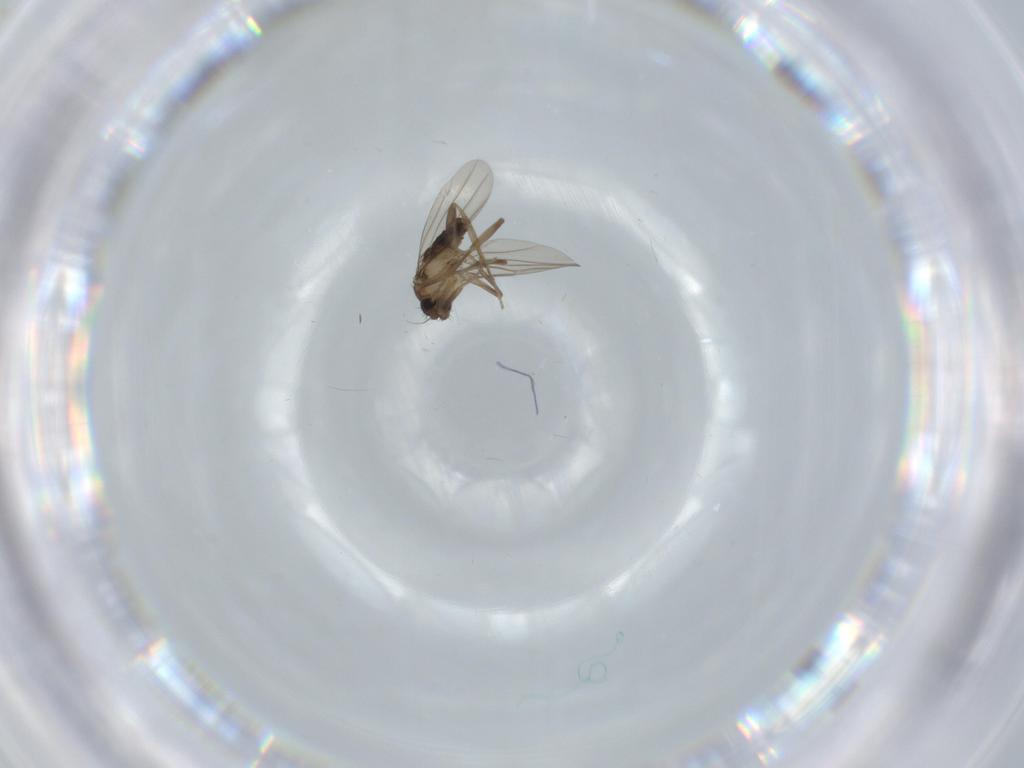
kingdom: Animalia
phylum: Arthropoda
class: Insecta
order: Diptera
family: Phoridae
